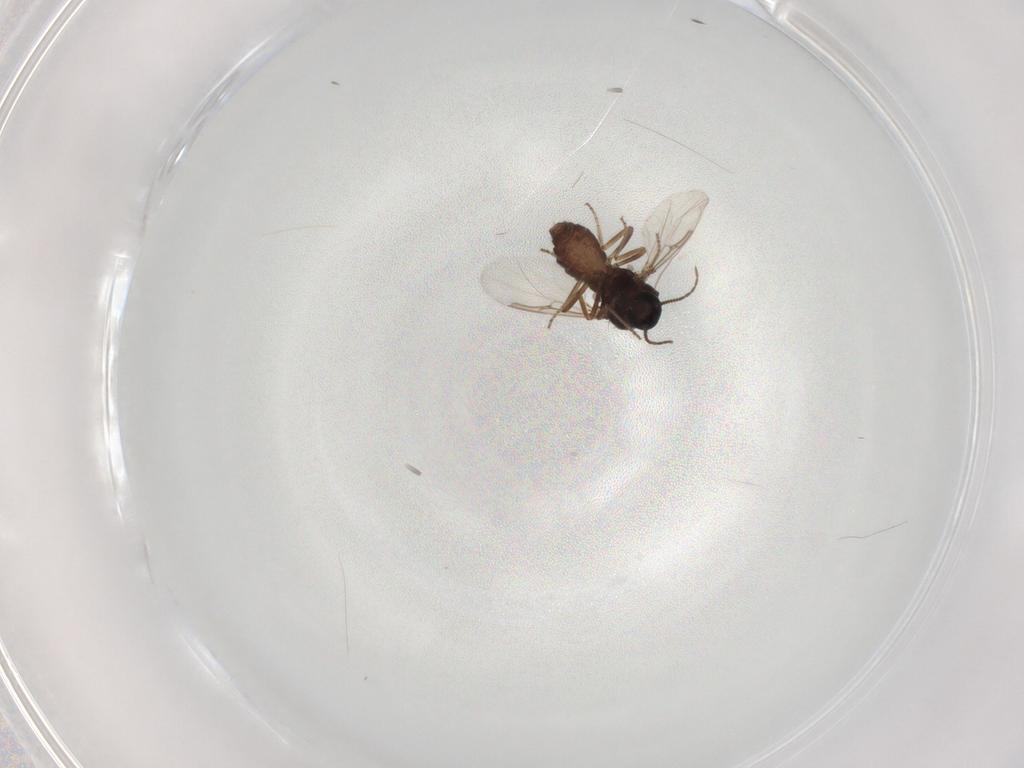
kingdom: Animalia
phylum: Arthropoda
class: Insecta
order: Diptera
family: Ceratopogonidae
